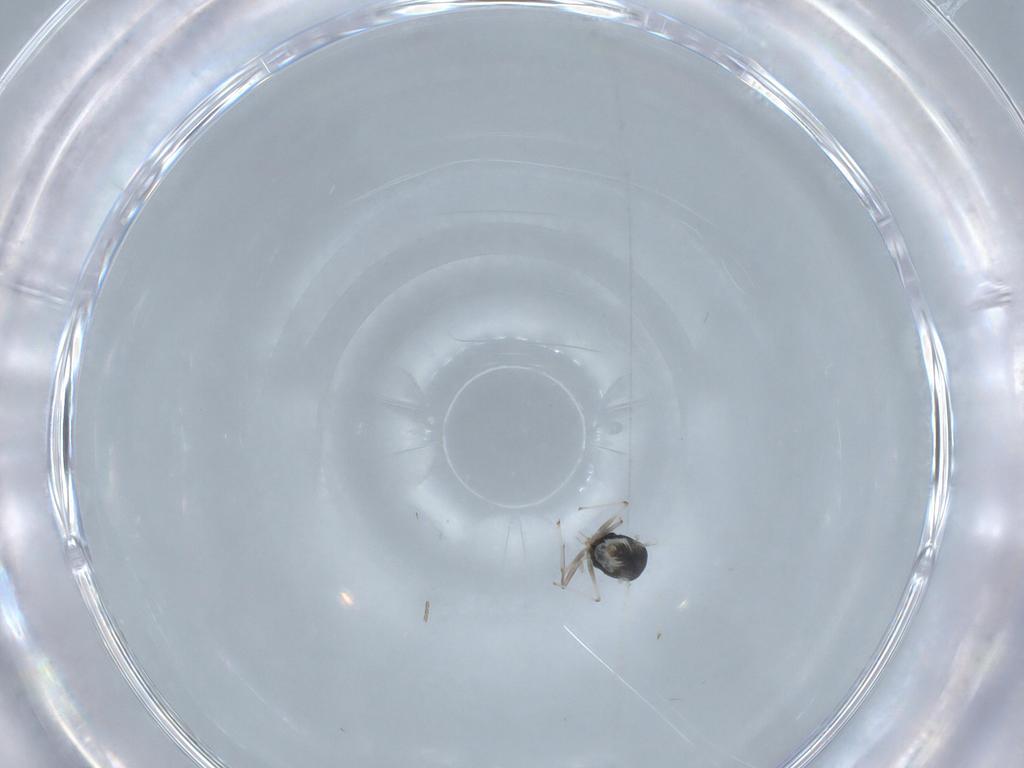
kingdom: Animalia
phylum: Arthropoda
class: Insecta
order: Diptera
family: Chironomidae
